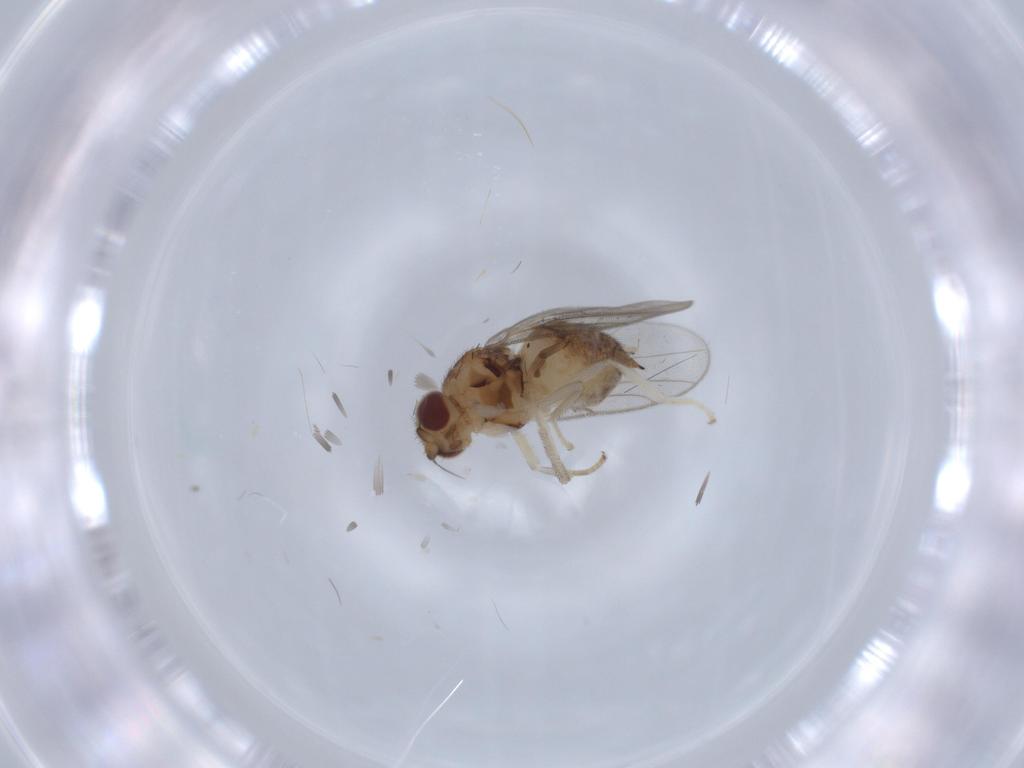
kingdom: Animalia
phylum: Arthropoda
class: Insecta
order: Diptera
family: Chloropidae
